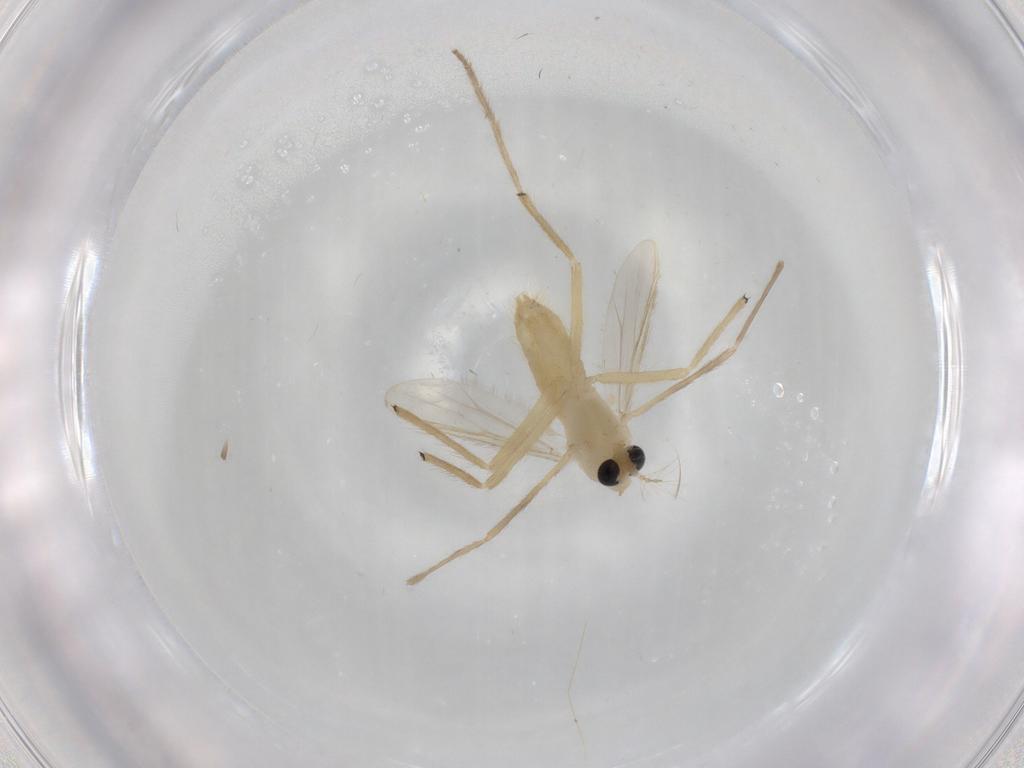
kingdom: Animalia
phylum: Arthropoda
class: Insecta
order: Diptera
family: Chironomidae
